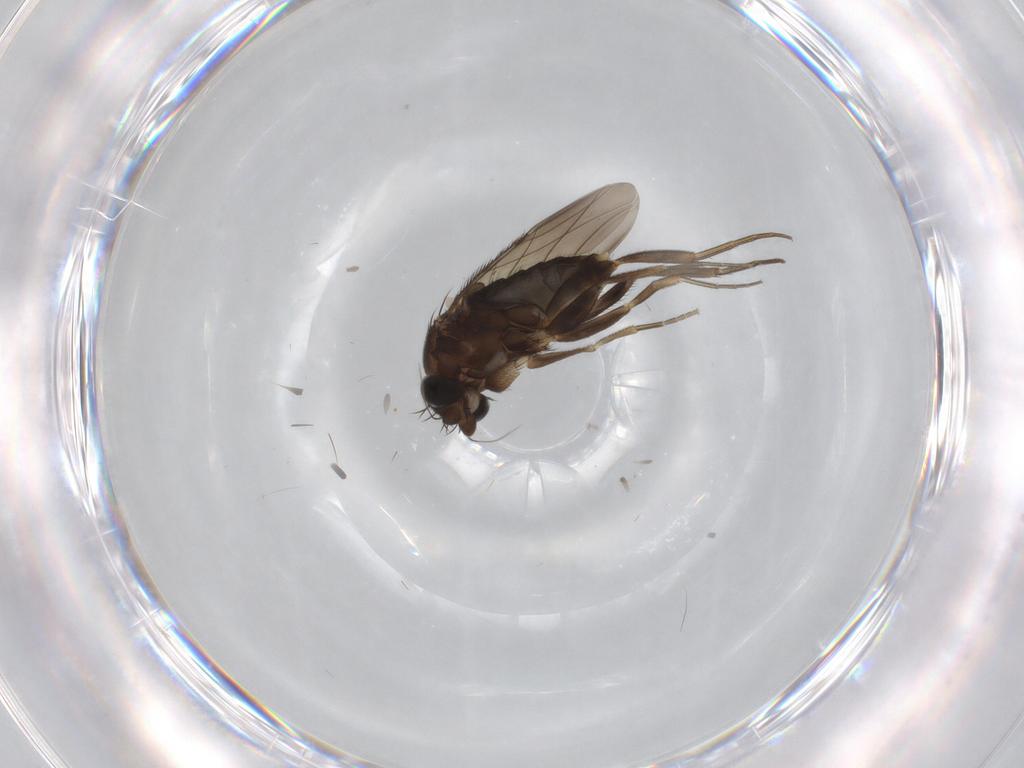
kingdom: Animalia
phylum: Arthropoda
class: Insecta
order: Diptera
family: Phoridae
